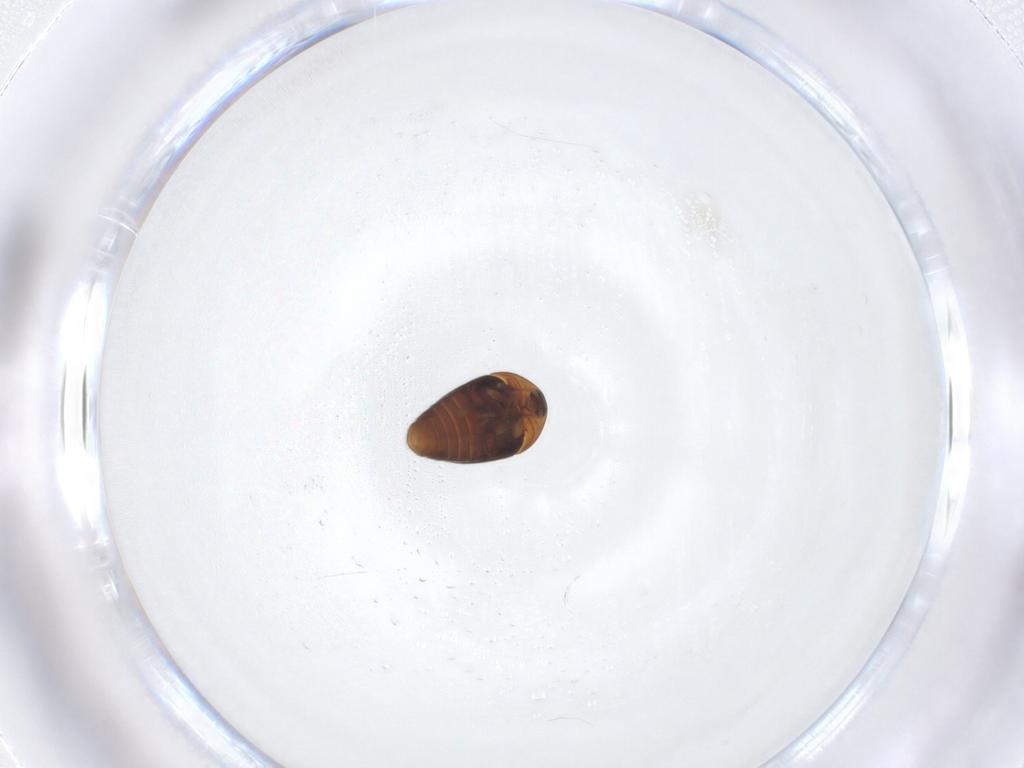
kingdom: Animalia
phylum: Arthropoda
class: Insecta
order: Coleoptera
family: Corylophidae
